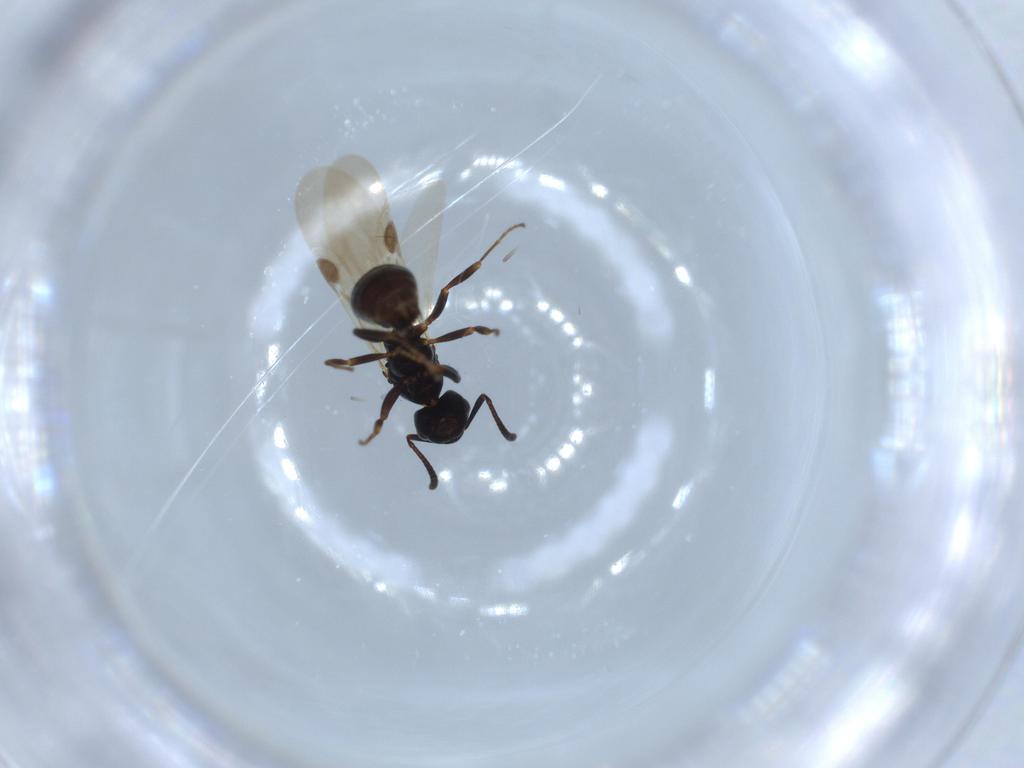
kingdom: Animalia
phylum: Arthropoda
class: Insecta
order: Hymenoptera
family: Formicidae
